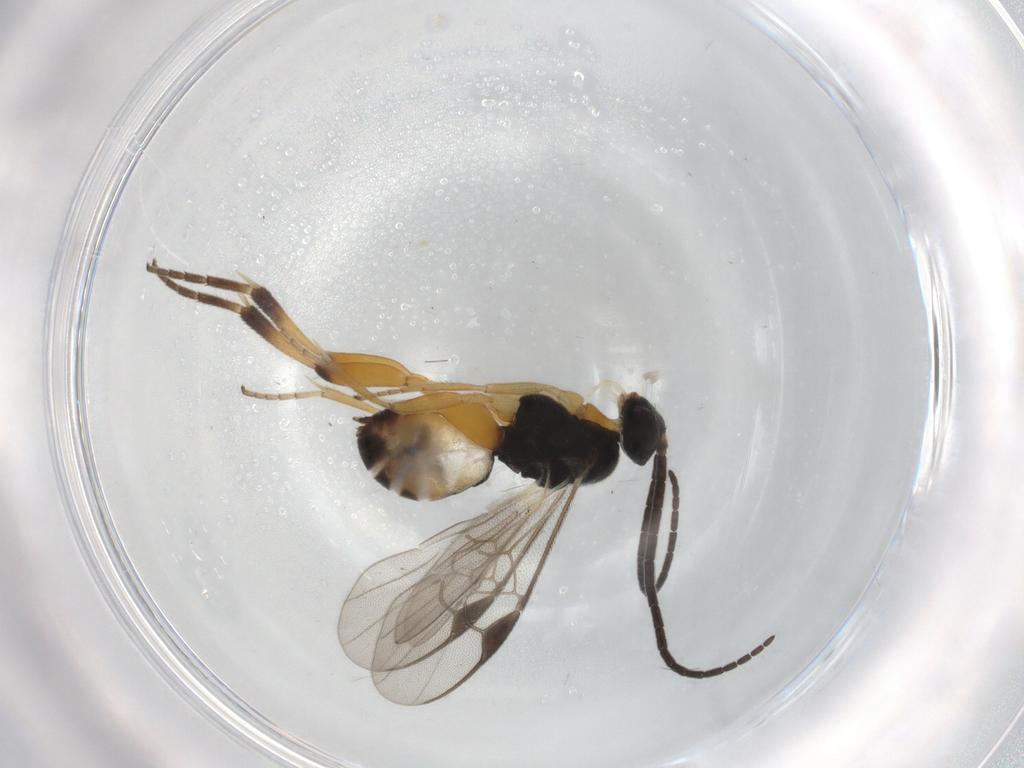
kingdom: Animalia
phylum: Arthropoda
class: Insecta
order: Hymenoptera
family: Braconidae
